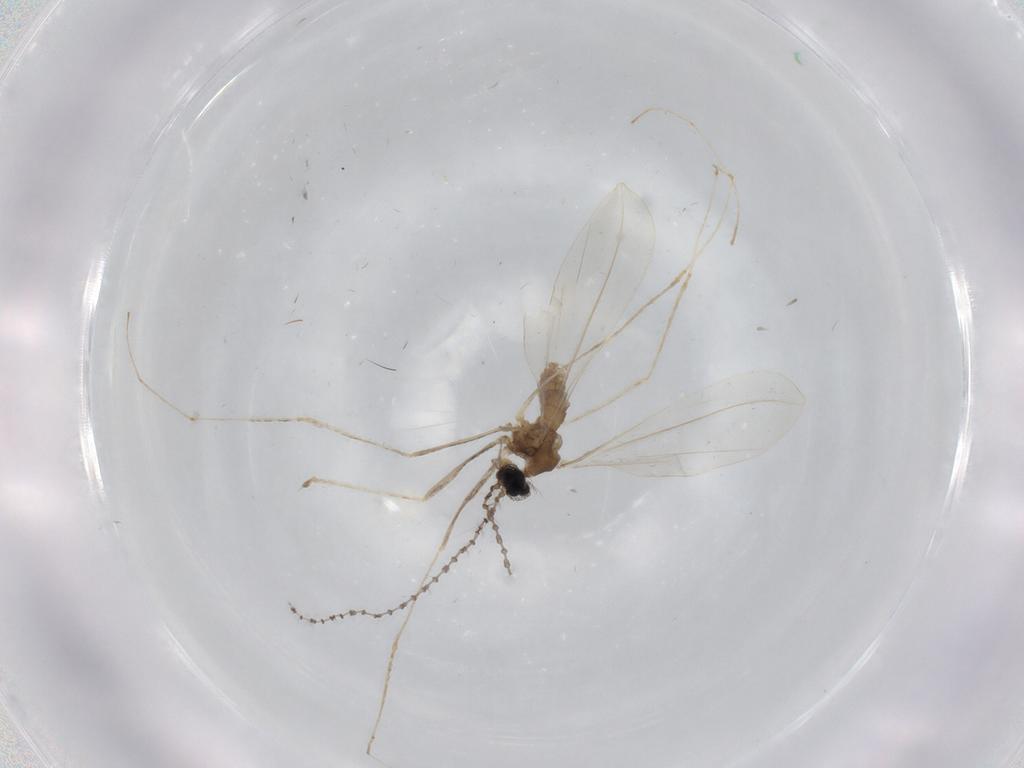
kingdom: Animalia
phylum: Arthropoda
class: Insecta
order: Diptera
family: Cecidomyiidae
